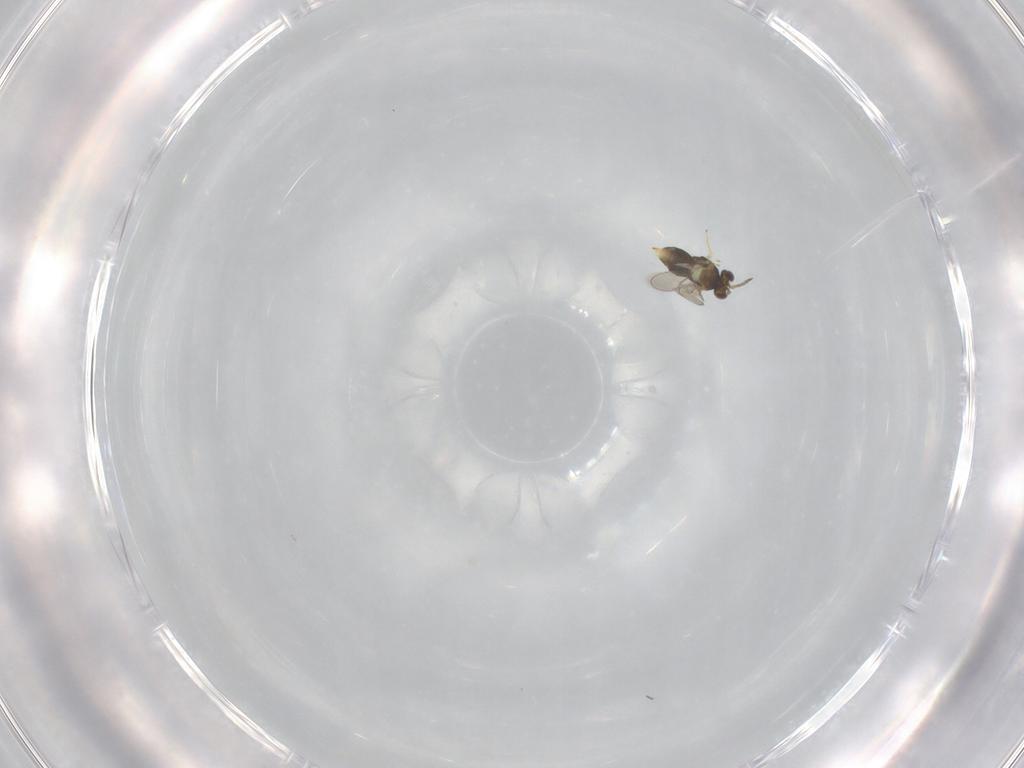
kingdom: Animalia
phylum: Arthropoda
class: Insecta
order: Hymenoptera
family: Aphelinidae
